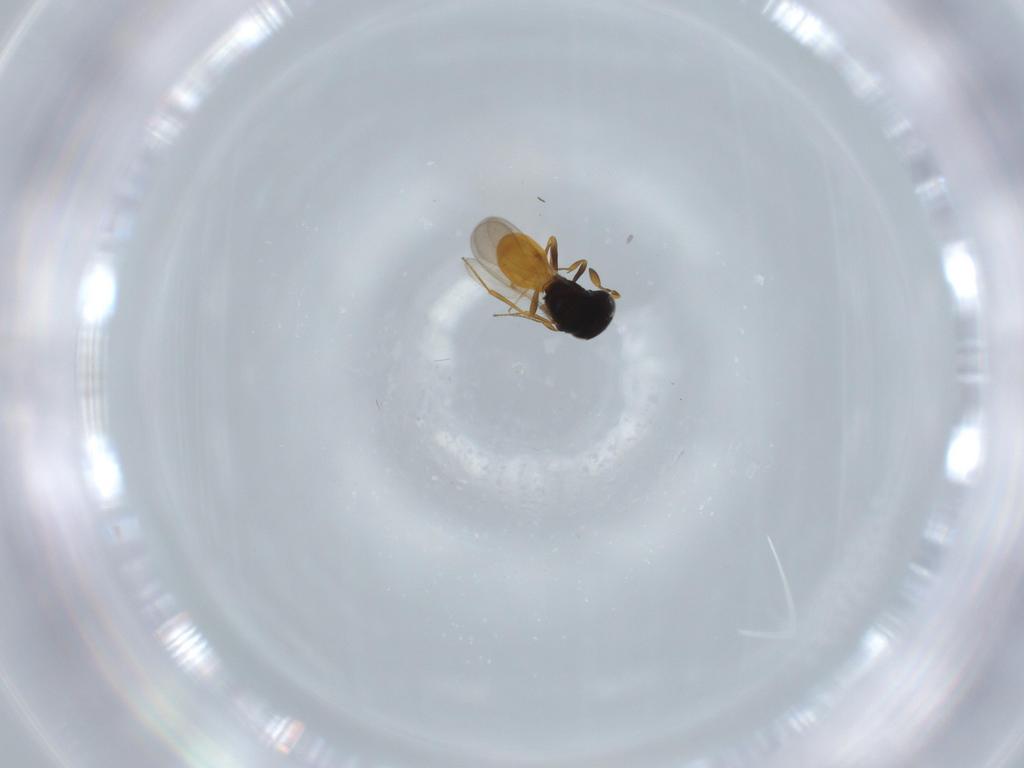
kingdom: Animalia
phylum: Arthropoda
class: Insecta
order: Hymenoptera
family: Scelionidae
